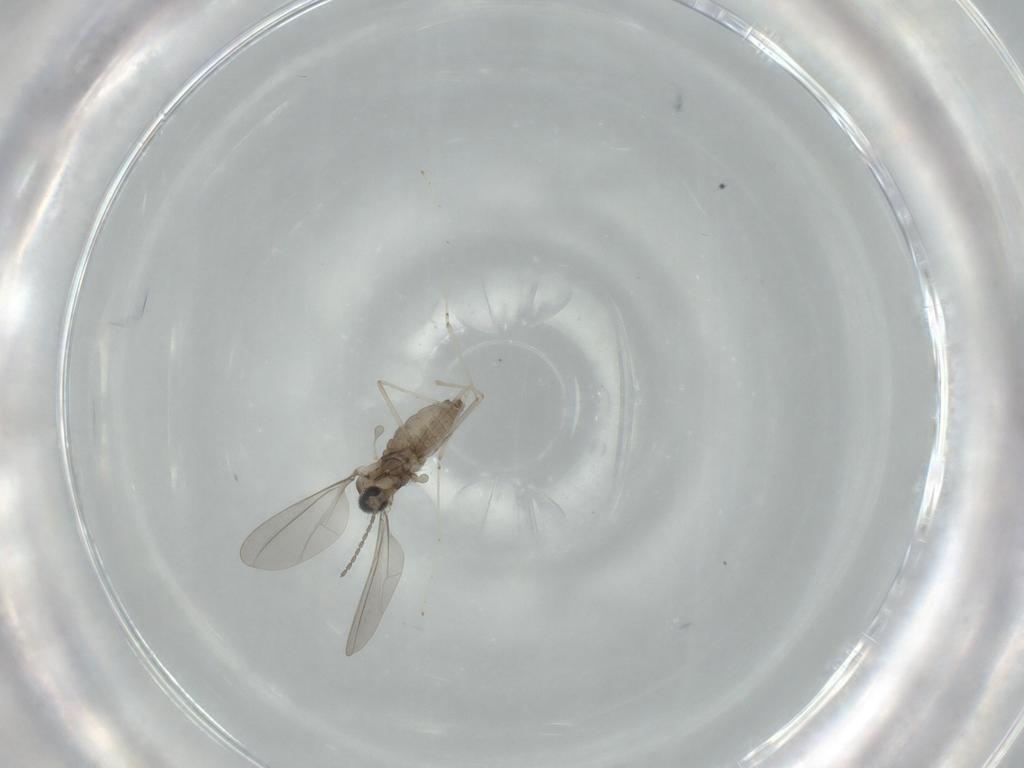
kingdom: Animalia
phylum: Arthropoda
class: Insecta
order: Diptera
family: Cecidomyiidae
